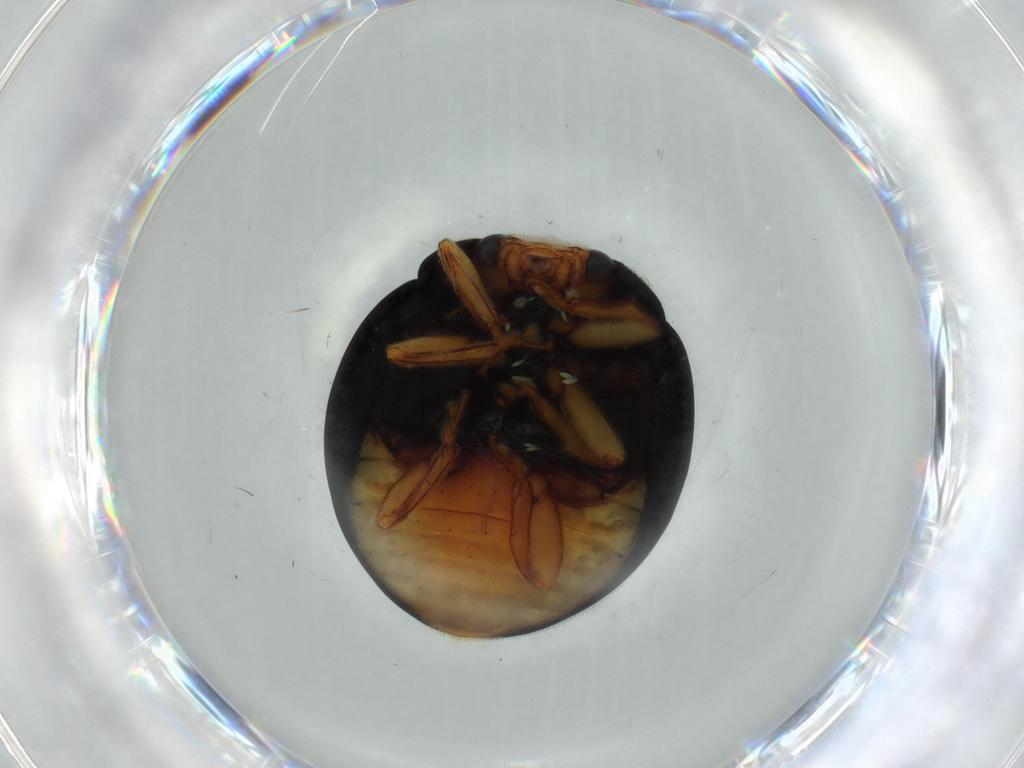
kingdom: Animalia
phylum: Arthropoda
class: Insecta
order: Coleoptera
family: Coccinellidae
